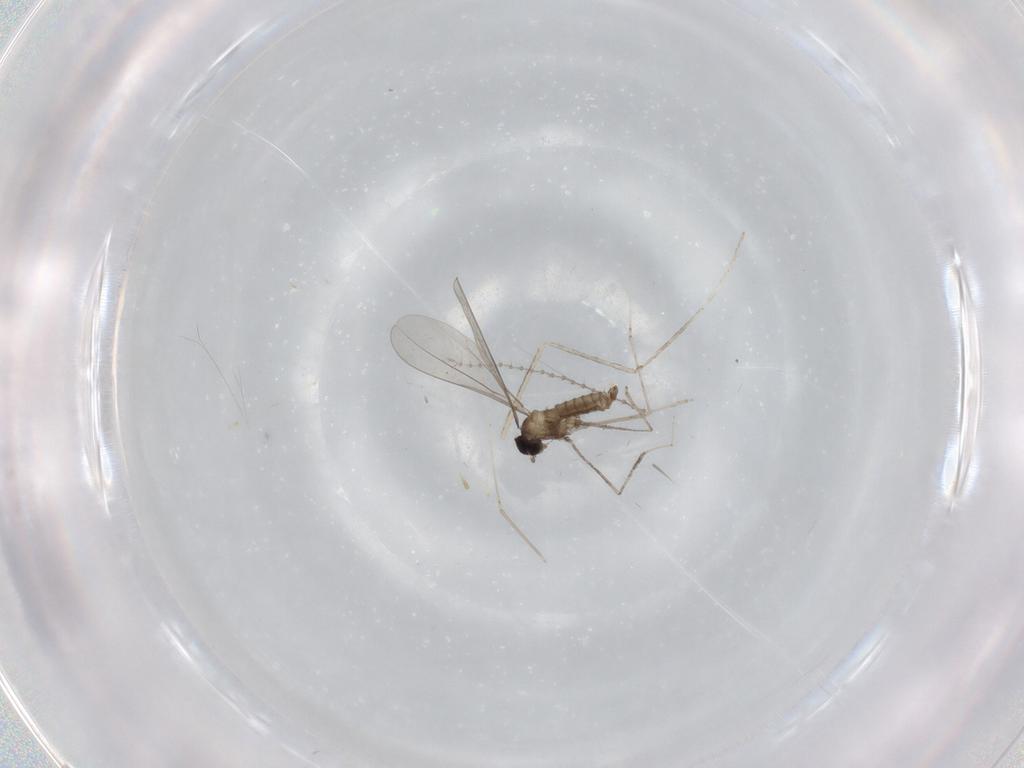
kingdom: Animalia
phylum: Arthropoda
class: Insecta
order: Diptera
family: Cecidomyiidae
